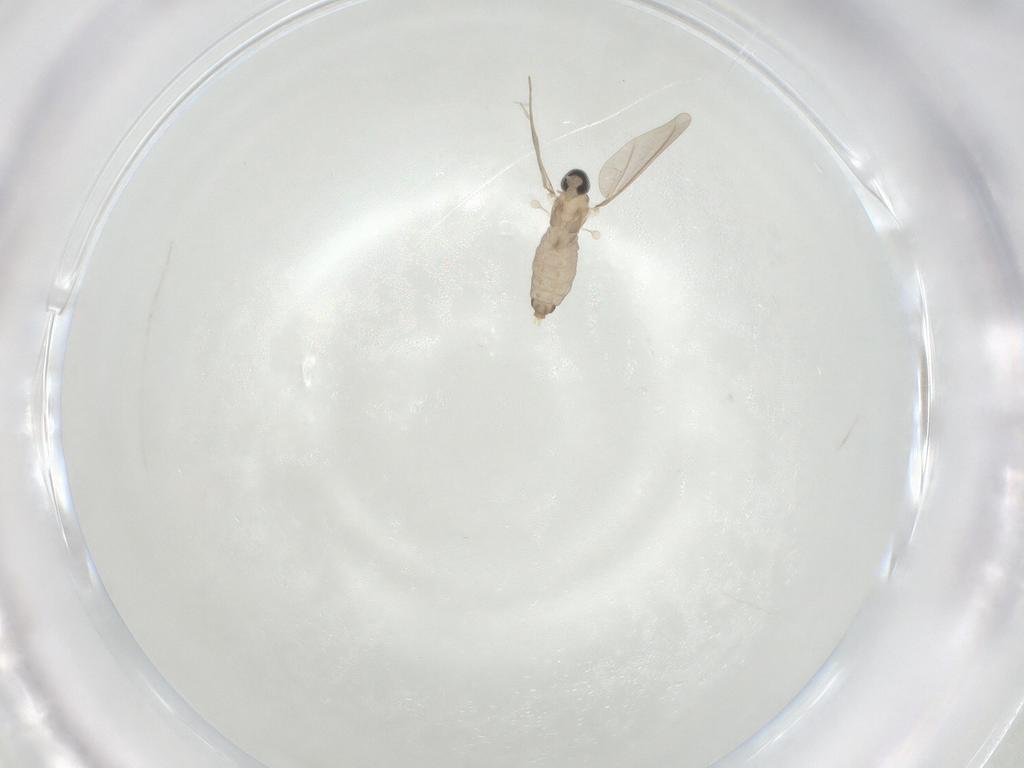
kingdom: Animalia
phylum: Arthropoda
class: Insecta
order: Diptera
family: Cecidomyiidae
